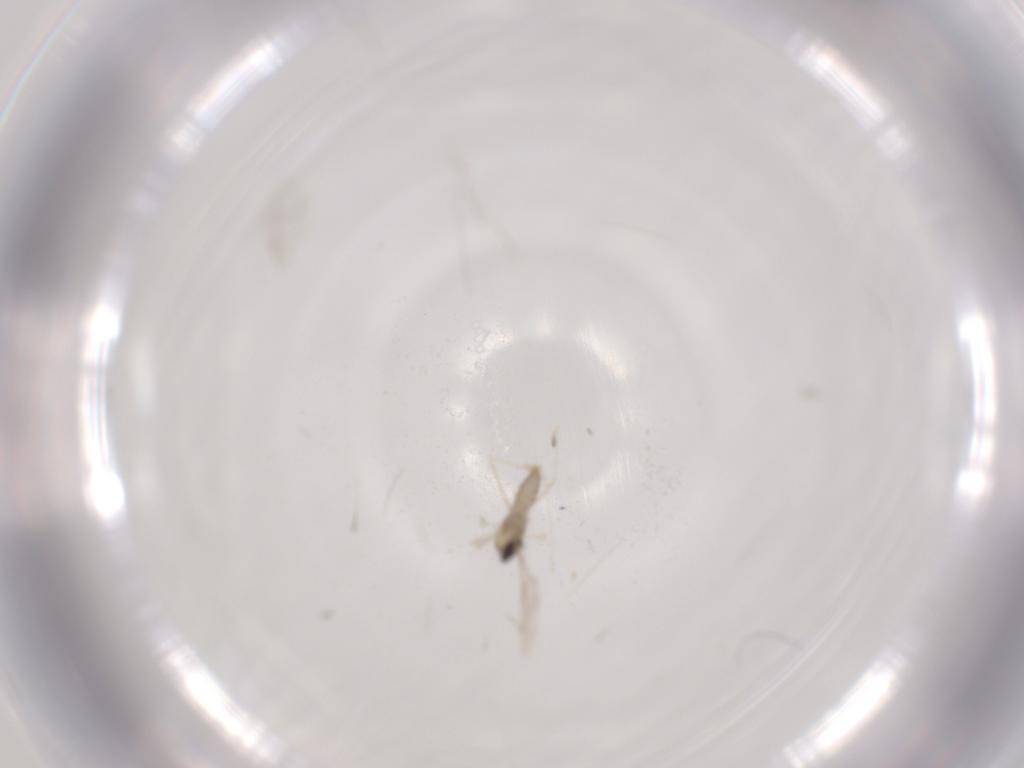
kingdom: Animalia
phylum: Arthropoda
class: Insecta
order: Diptera
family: Cecidomyiidae
